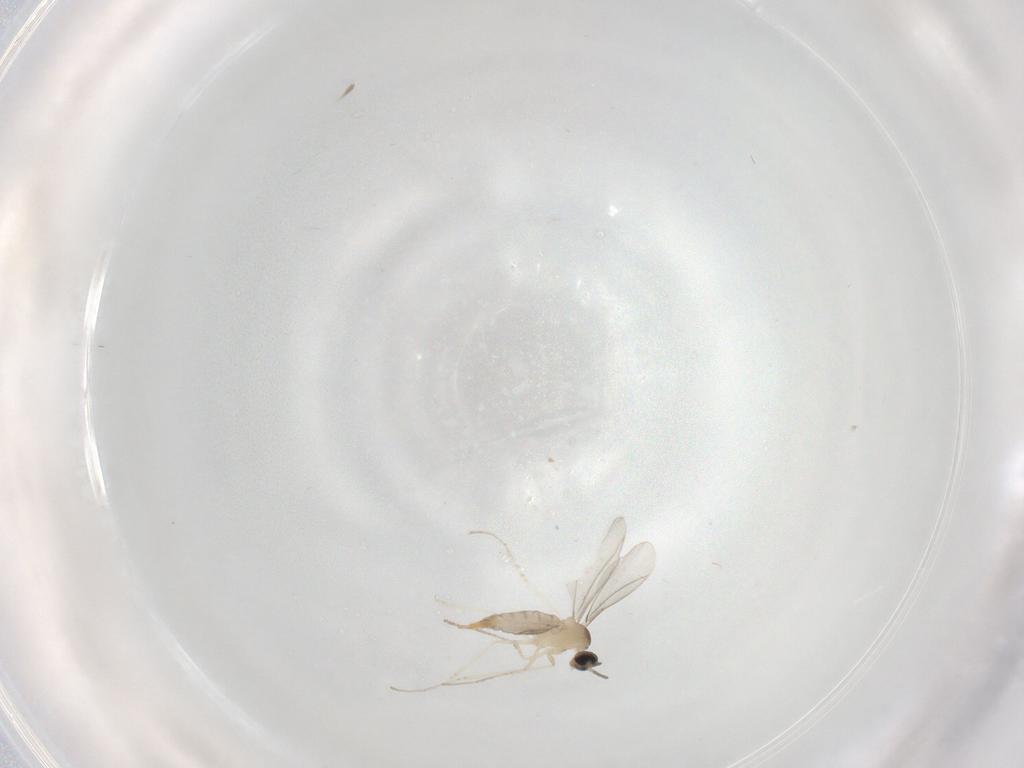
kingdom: Animalia
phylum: Arthropoda
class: Insecta
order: Diptera
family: Cecidomyiidae
